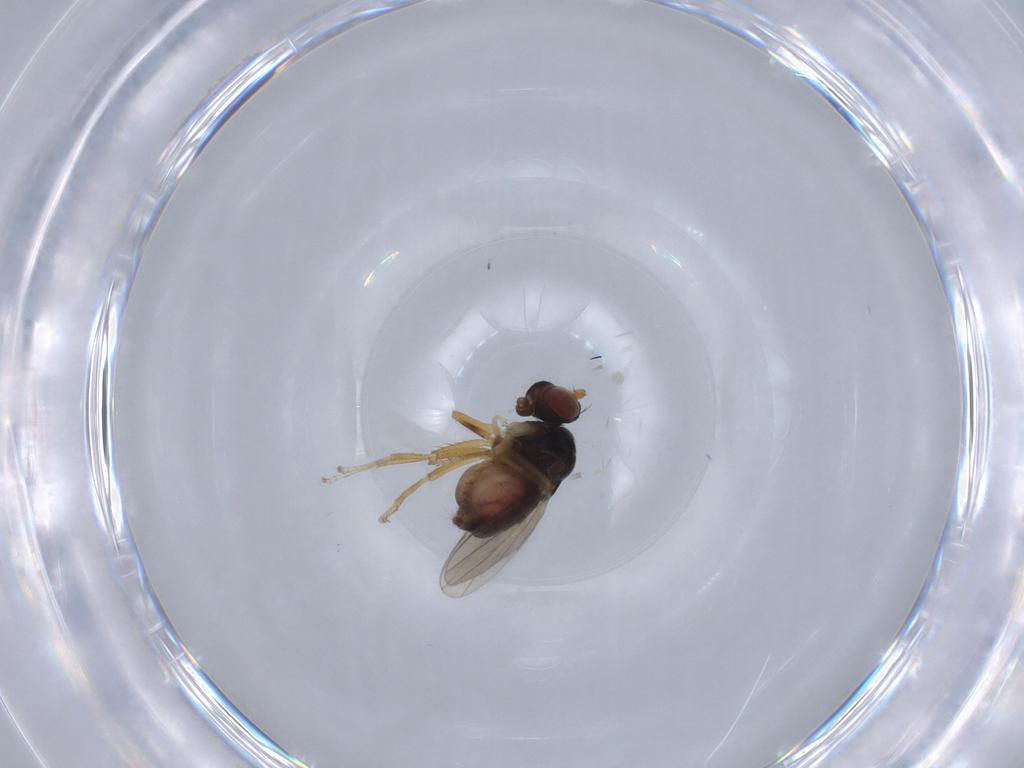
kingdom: Animalia
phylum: Arthropoda
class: Insecta
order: Diptera
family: Ephydridae
